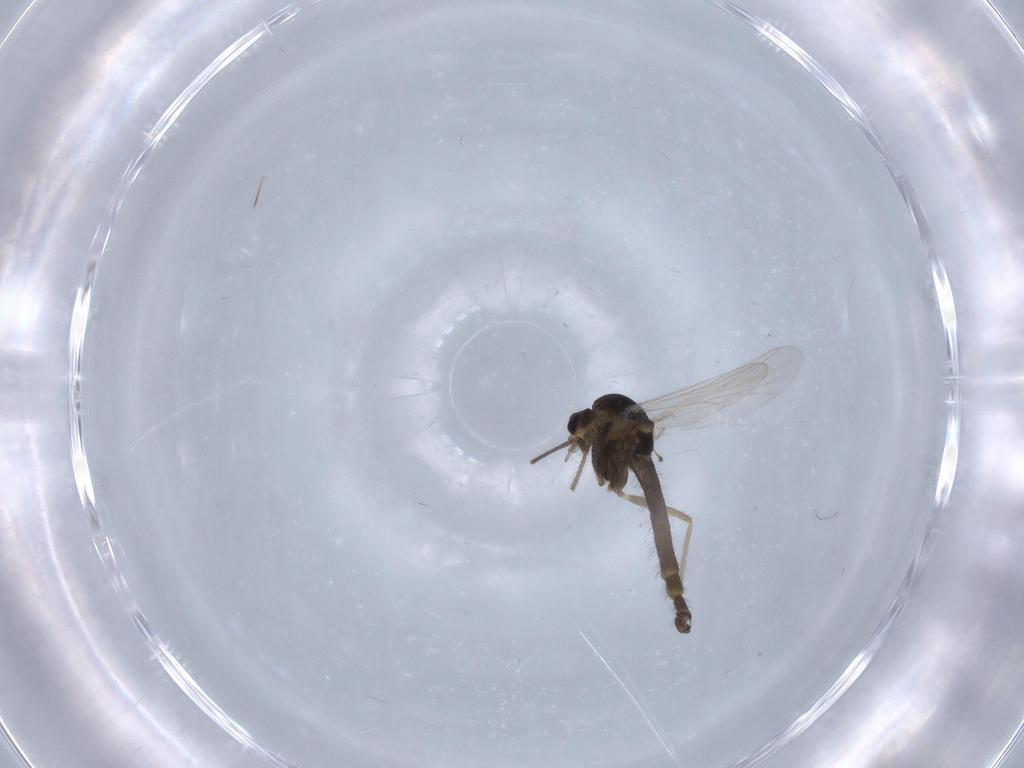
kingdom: Animalia
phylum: Arthropoda
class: Insecta
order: Diptera
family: Chironomidae
